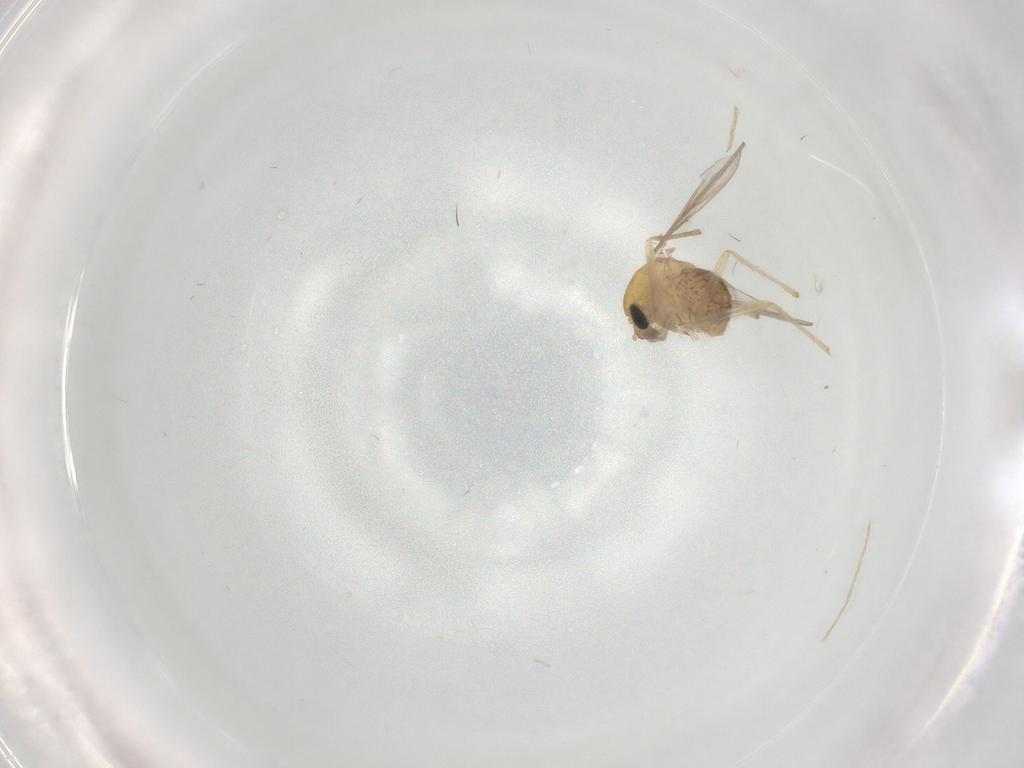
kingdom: Animalia
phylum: Arthropoda
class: Insecta
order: Diptera
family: Chironomidae
